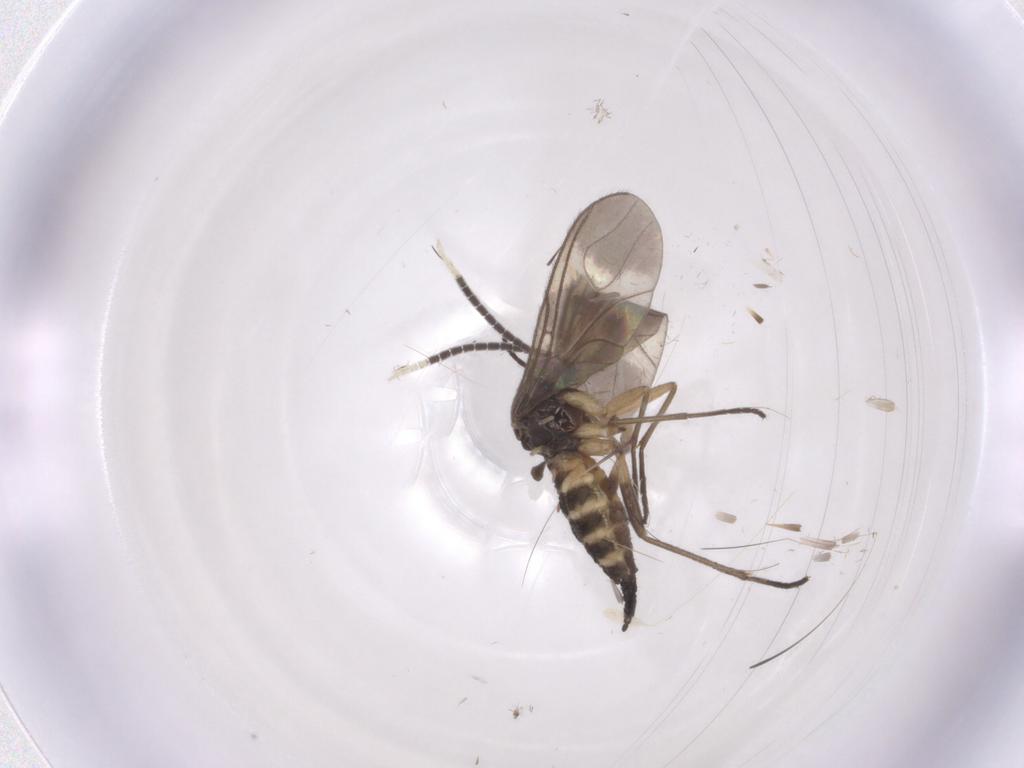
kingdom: Animalia
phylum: Arthropoda
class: Insecta
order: Diptera
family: Sciaridae
